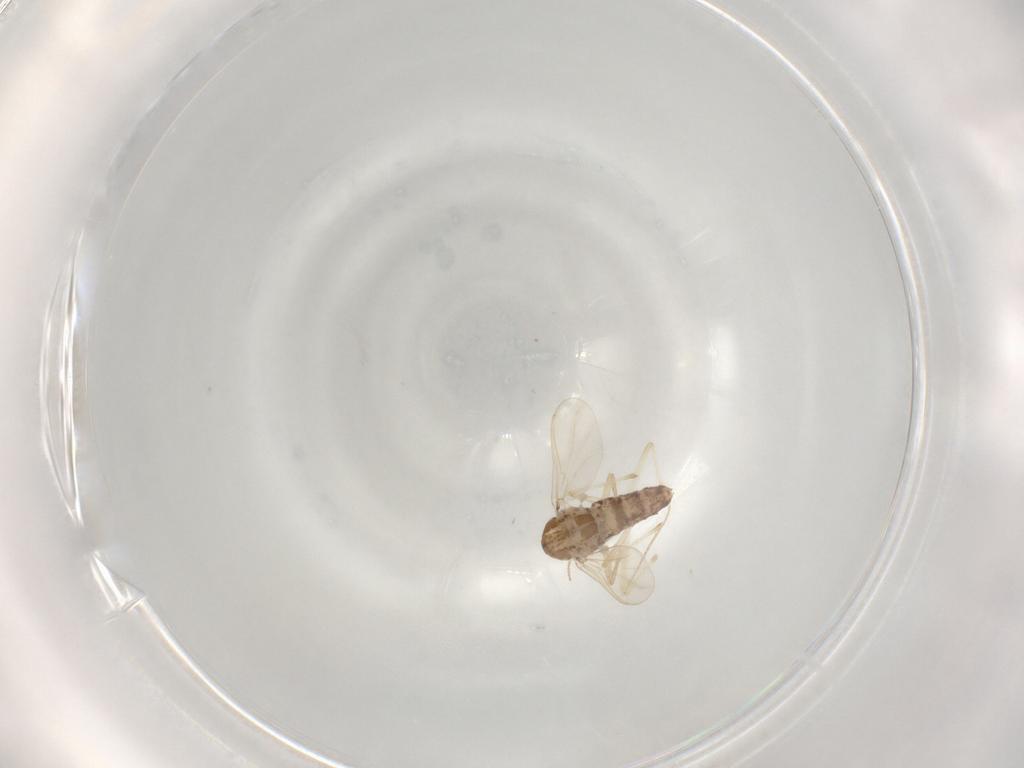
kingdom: Animalia
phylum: Arthropoda
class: Insecta
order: Diptera
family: Chironomidae
